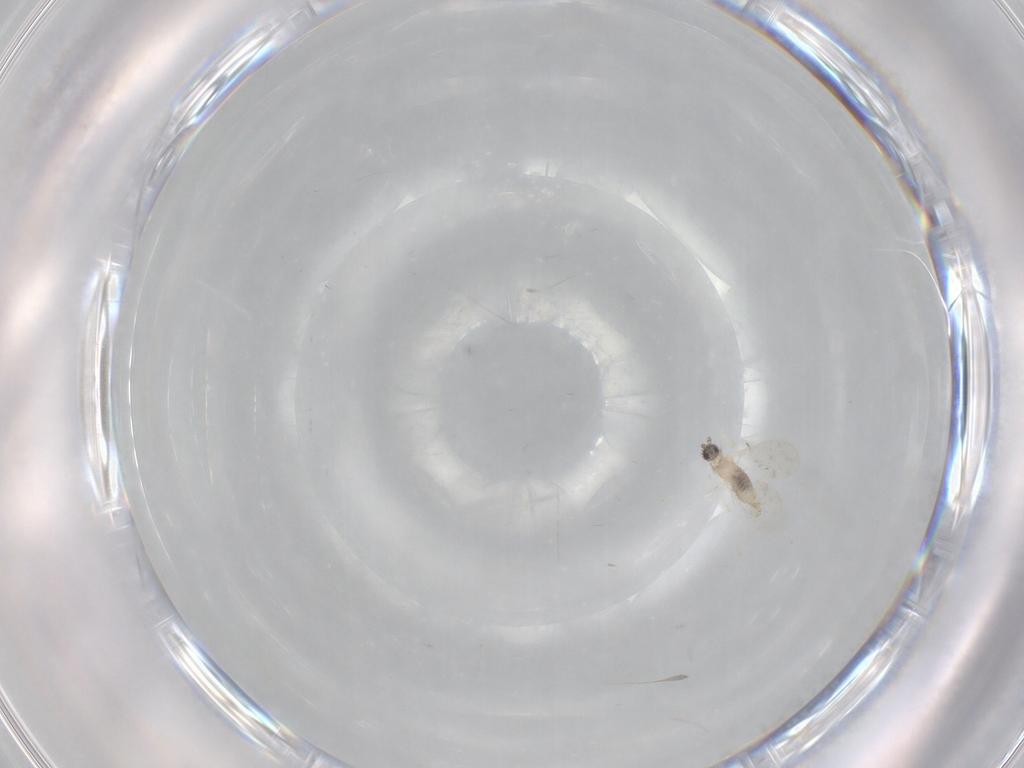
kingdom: Animalia
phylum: Arthropoda
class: Insecta
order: Diptera
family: Cecidomyiidae
